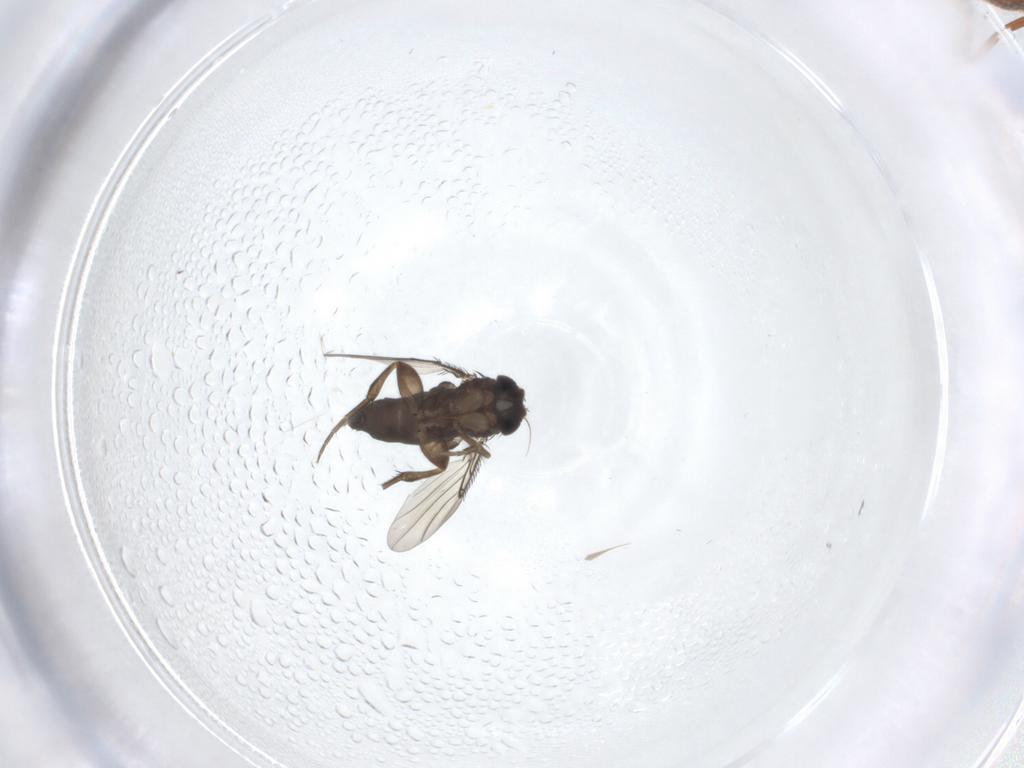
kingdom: Animalia
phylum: Arthropoda
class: Insecta
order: Diptera
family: Phoridae
